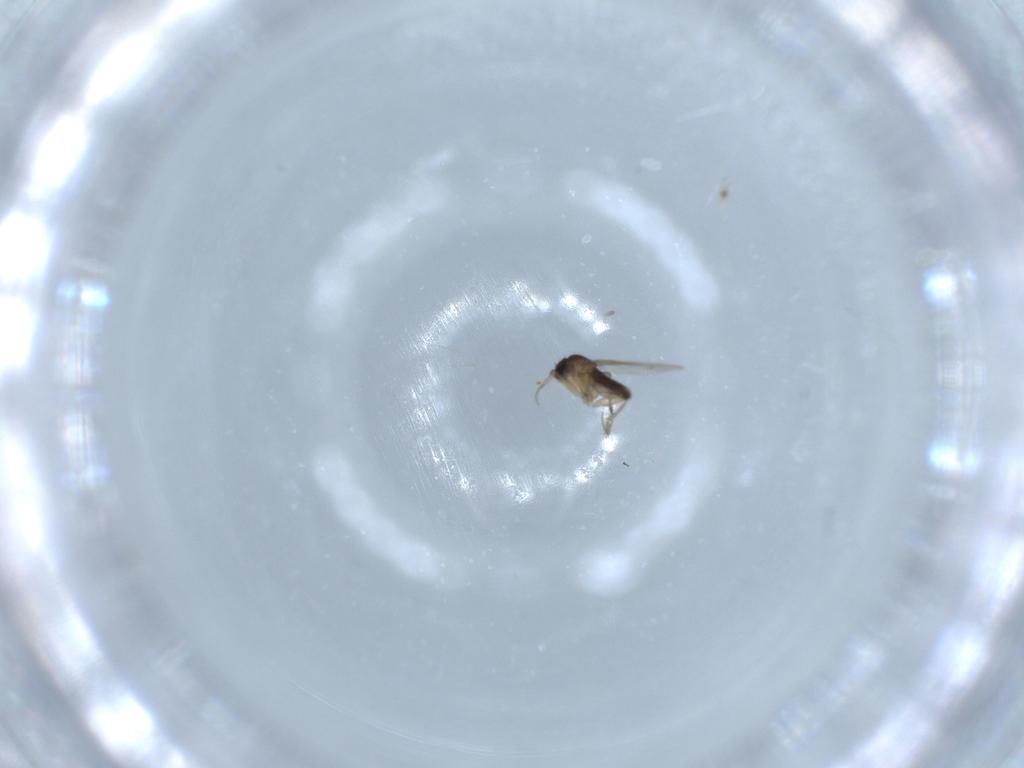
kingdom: Animalia
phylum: Arthropoda
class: Insecta
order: Diptera
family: Phoridae
